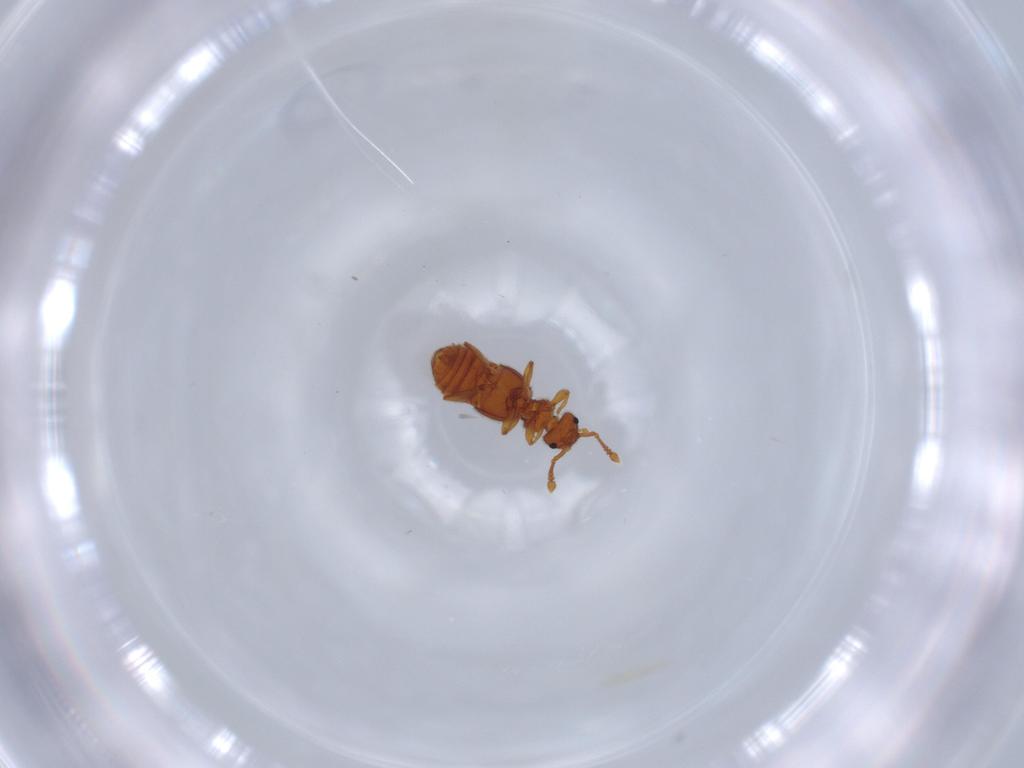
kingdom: Animalia
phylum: Arthropoda
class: Insecta
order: Coleoptera
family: Staphylinidae
